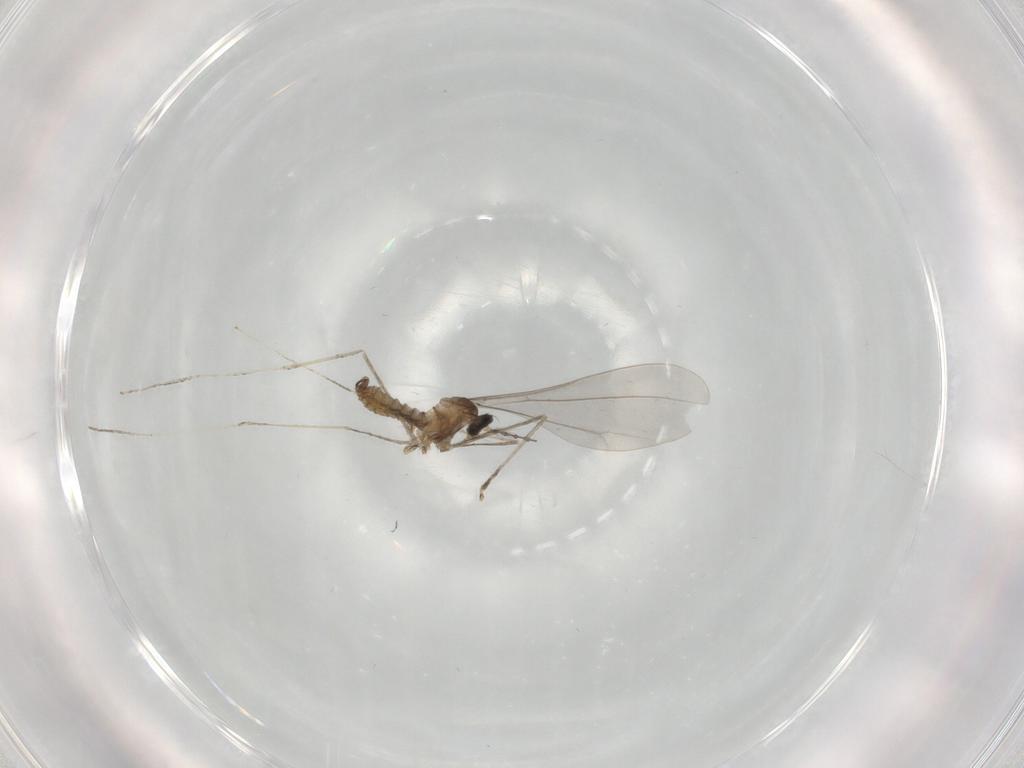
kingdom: Animalia
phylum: Arthropoda
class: Insecta
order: Diptera
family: Cecidomyiidae
